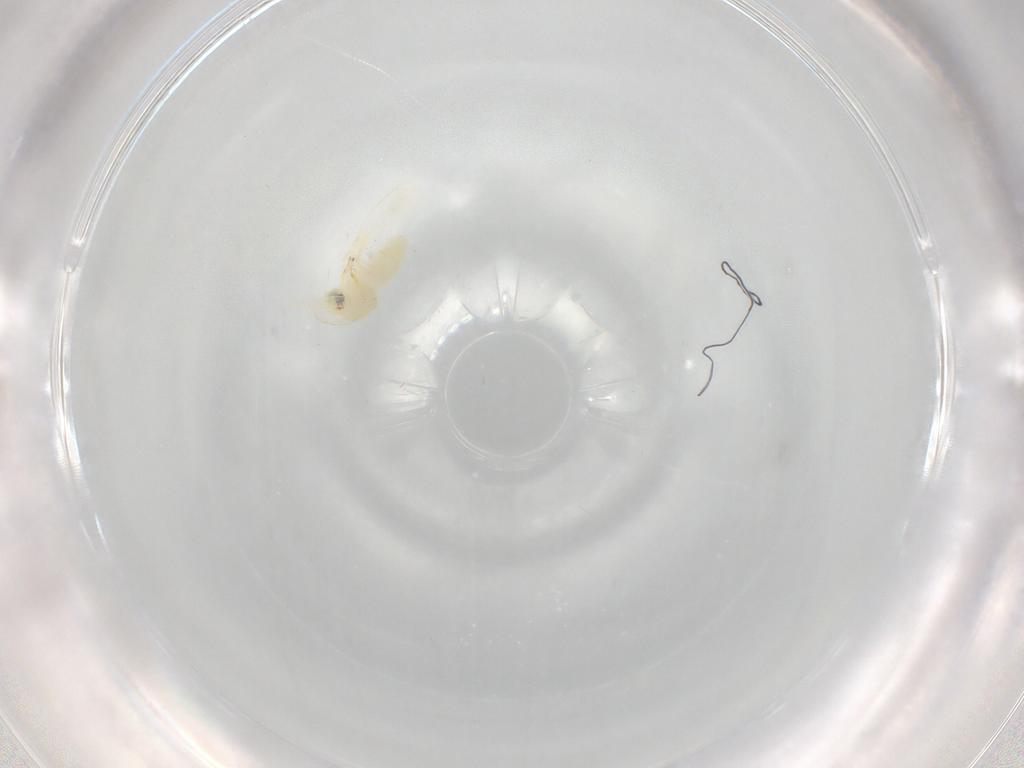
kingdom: Animalia
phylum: Arthropoda
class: Insecta
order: Hemiptera
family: Aleyrodidae
